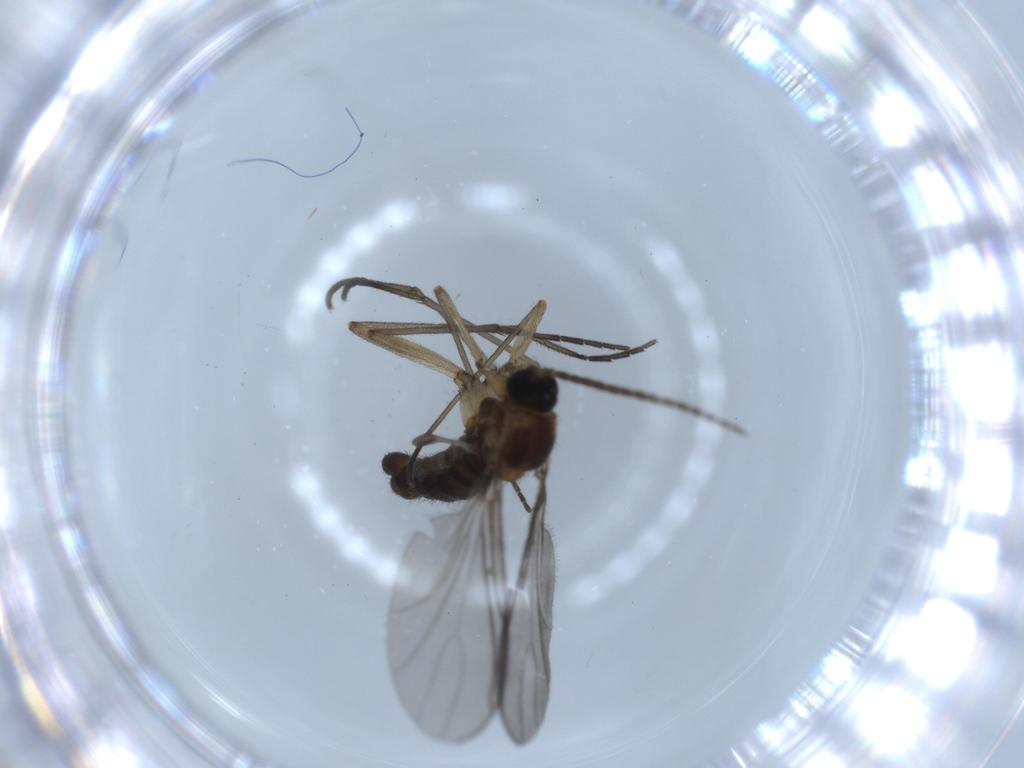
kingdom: Animalia
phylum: Arthropoda
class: Insecta
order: Diptera
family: Sciaridae
